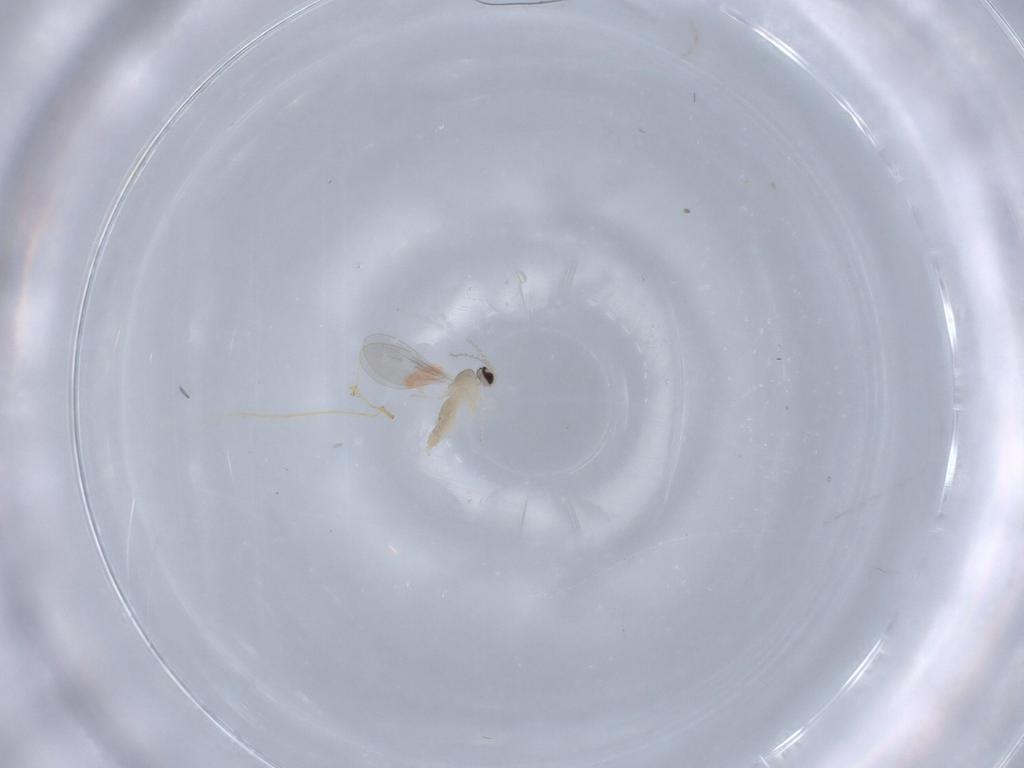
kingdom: Animalia
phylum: Arthropoda
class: Insecta
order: Diptera
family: Cecidomyiidae
